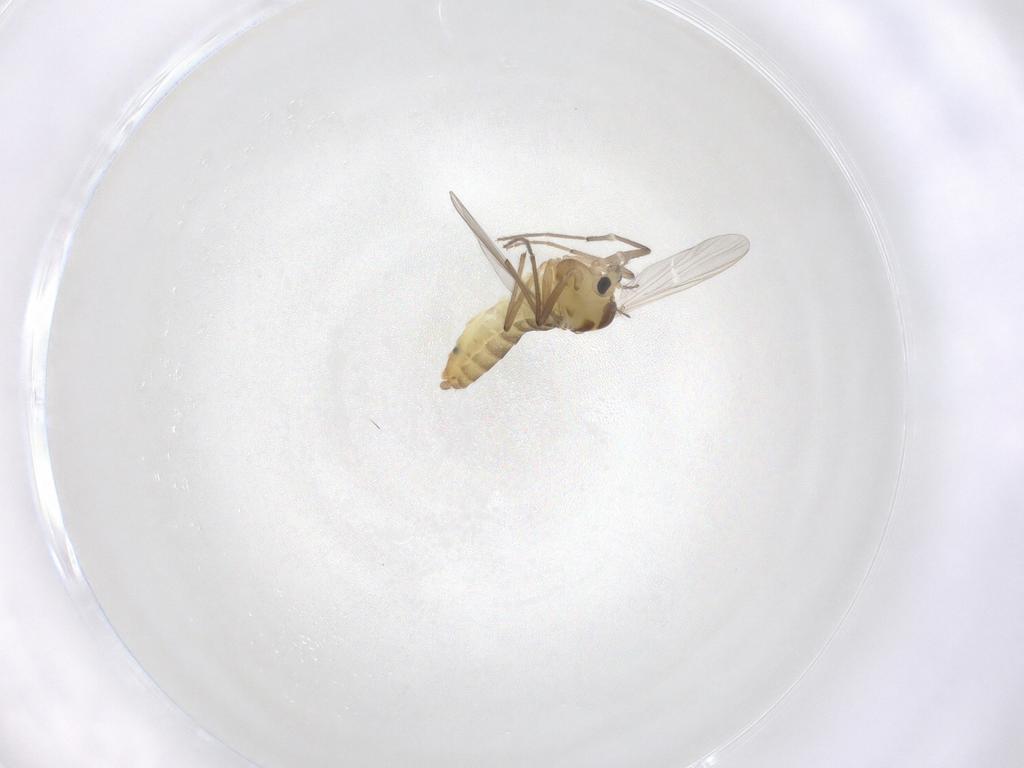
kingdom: Animalia
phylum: Arthropoda
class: Insecta
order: Diptera
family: Chironomidae
